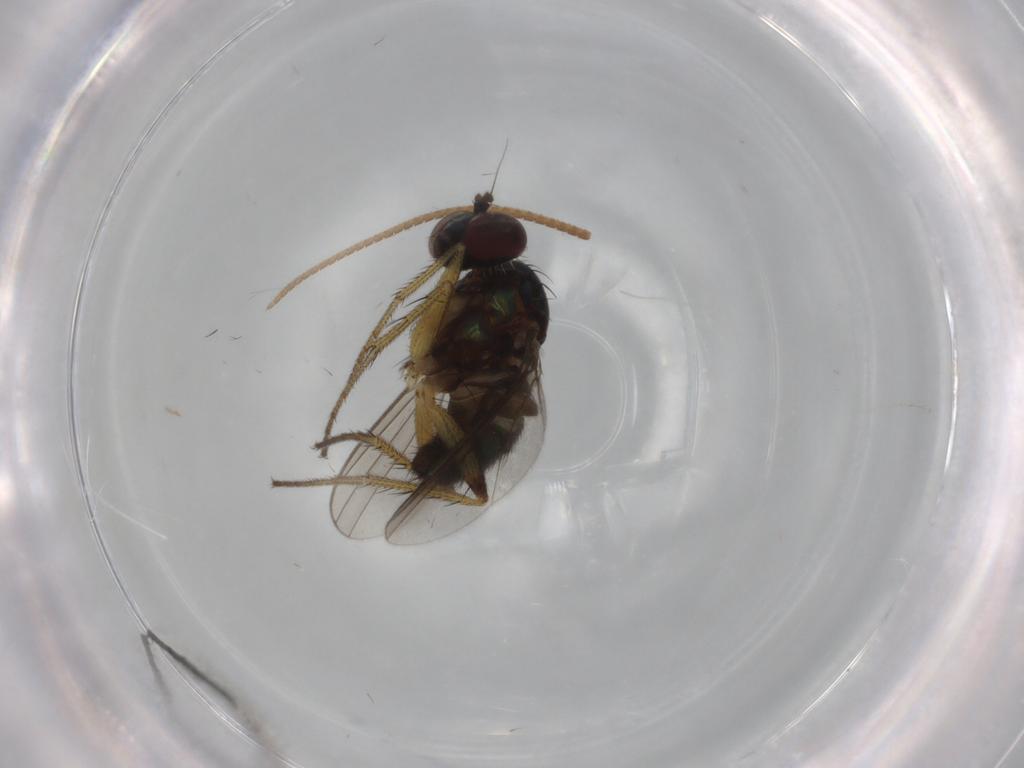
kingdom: Animalia
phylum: Arthropoda
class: Insecta
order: Diptera
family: Dolichopodidae
